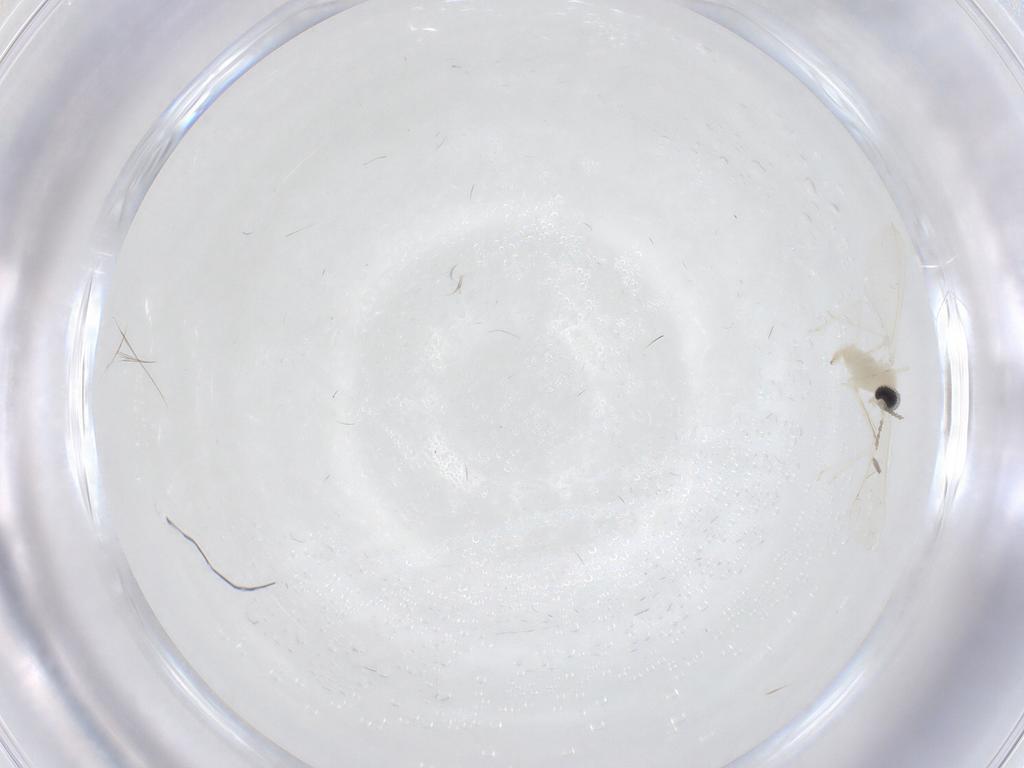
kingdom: Animalia
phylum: Arthropoda
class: Insecta
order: Diptera
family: Cecidomyiidae
